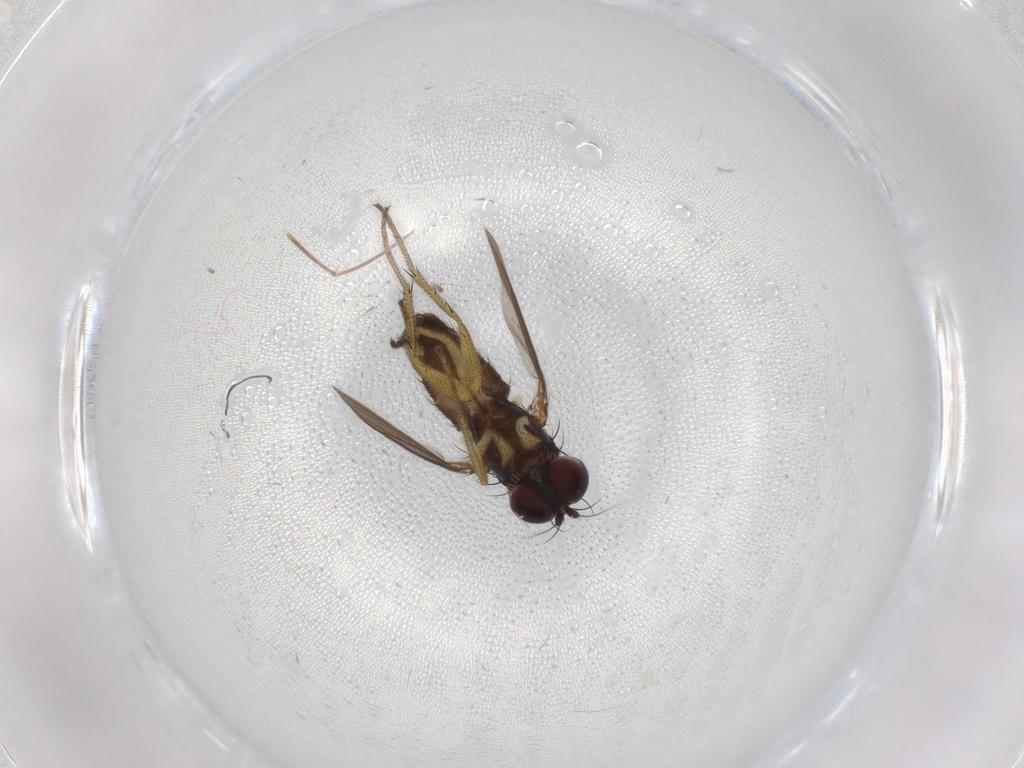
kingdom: Animalia
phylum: Arthropoda
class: Insecta
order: Diptera
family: Chironomidae
